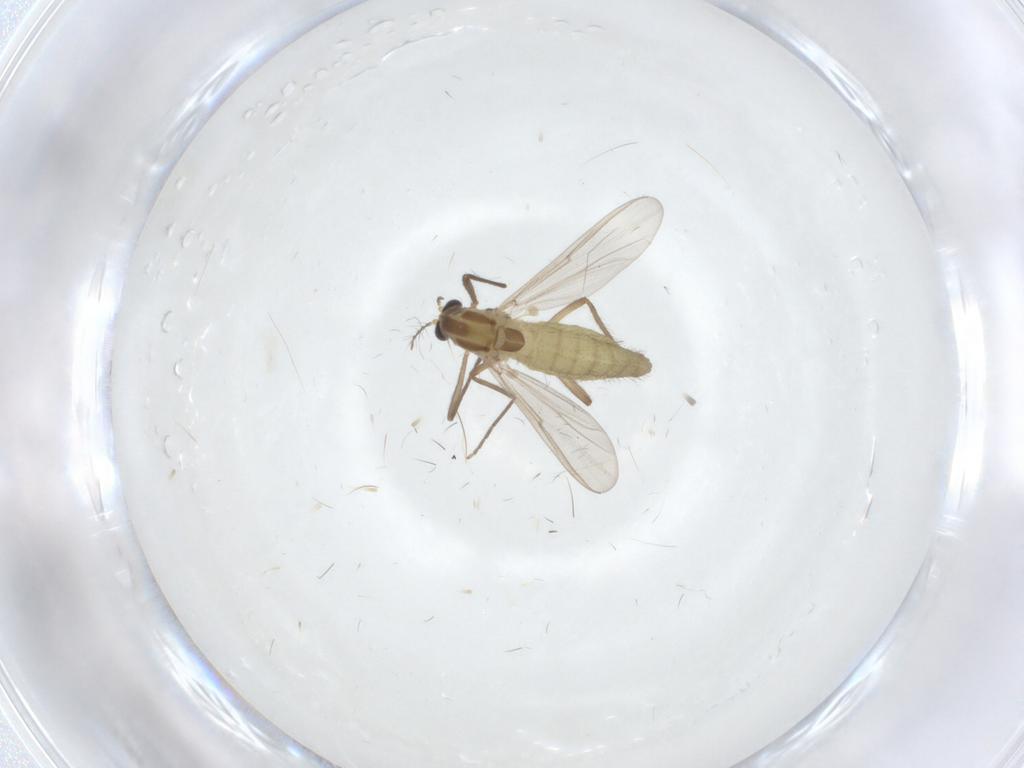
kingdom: Animalia
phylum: Arthropoda
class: Insecta
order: Diptera
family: Chironomidae
